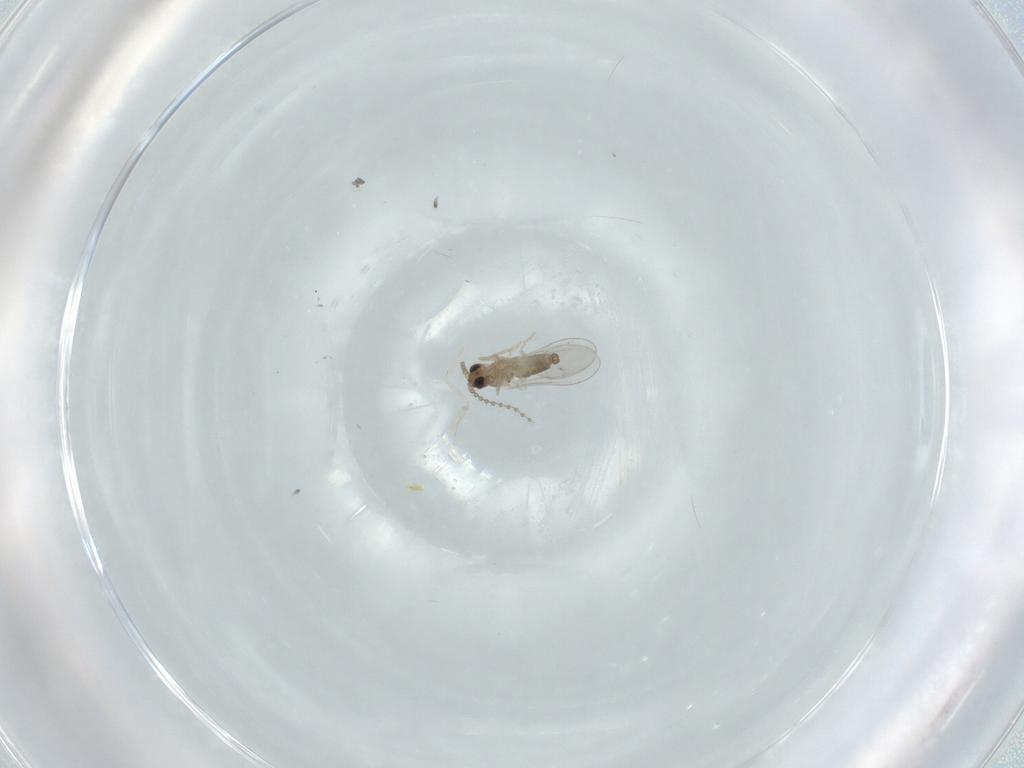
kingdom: Animalia
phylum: Arthropoda
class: Insecta
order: Diptera
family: Cecidomyiidae
